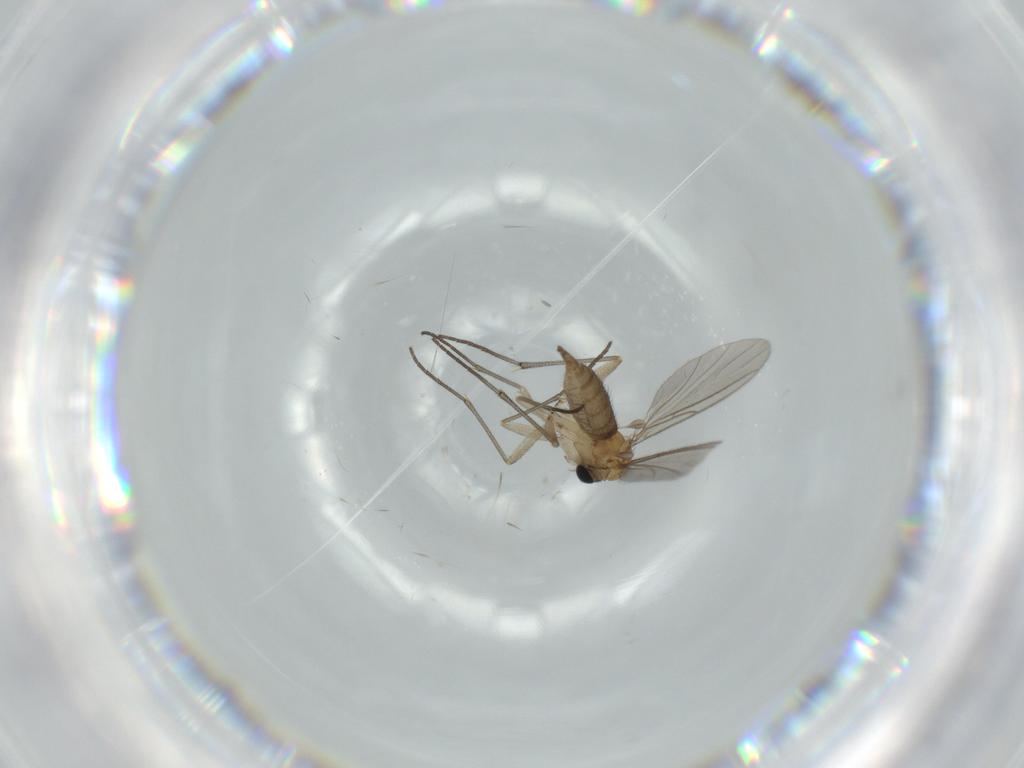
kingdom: Animalia
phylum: Arthropoda
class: Insecta
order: Diptera
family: Sciaridae
